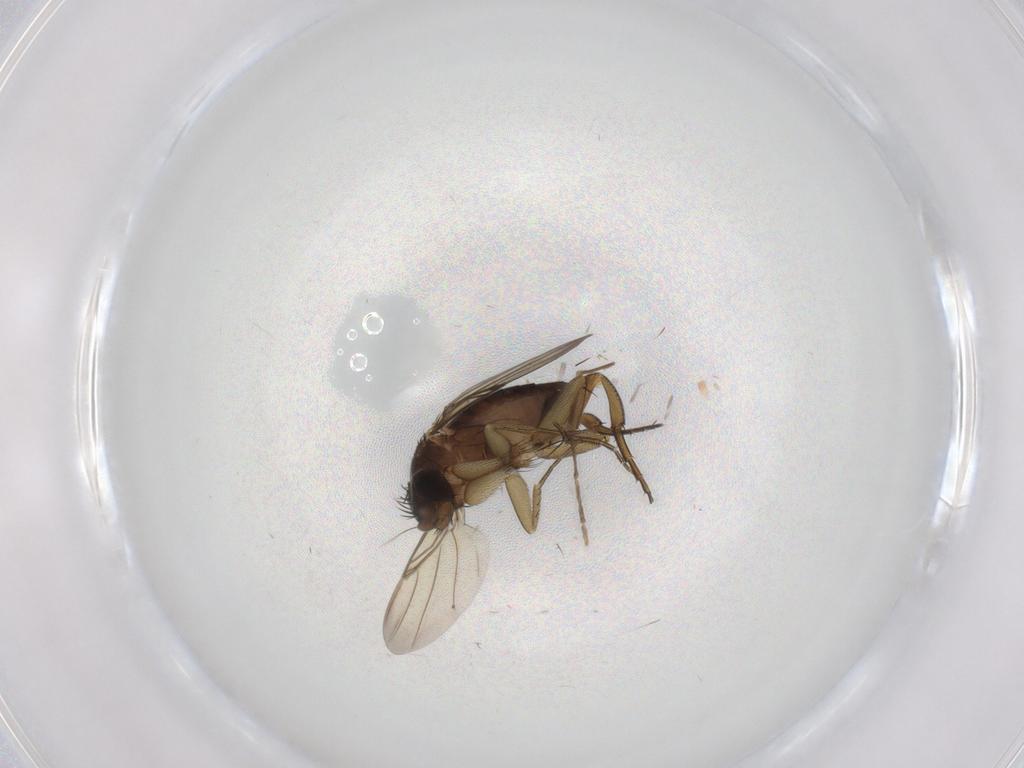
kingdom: Animalia
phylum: Arthropoda
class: Insecta
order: Diptera
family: Phoridae
